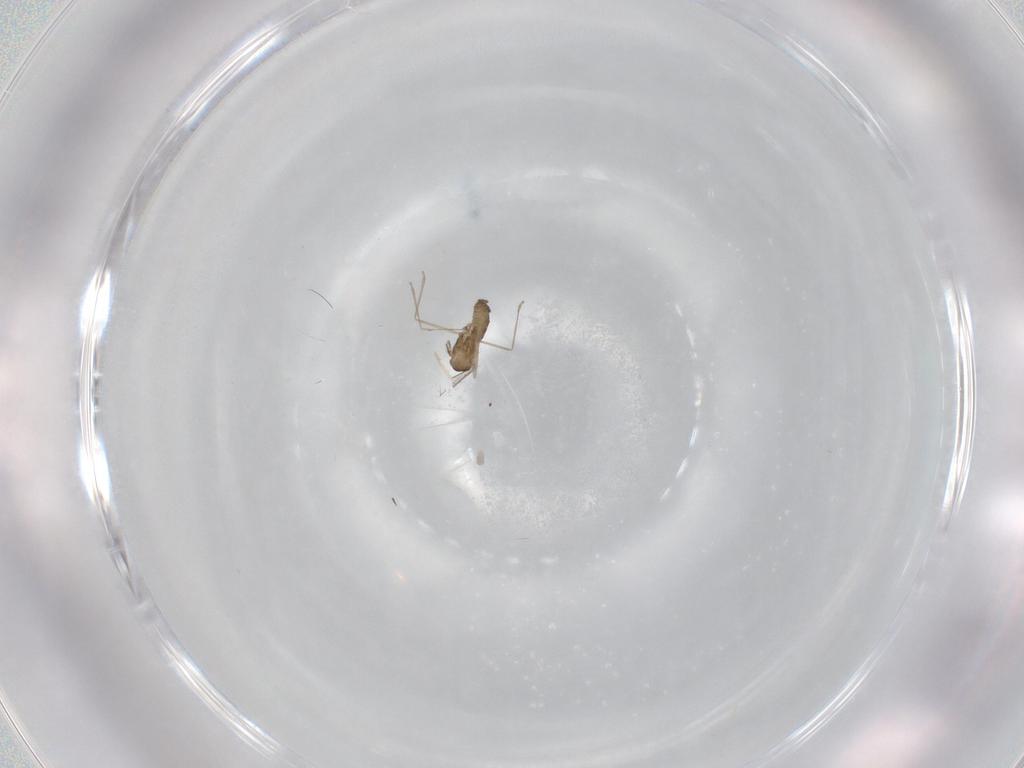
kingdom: Animalia
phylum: Arthropoda
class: Insecta
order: Diptera
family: Cecidomyiidae
